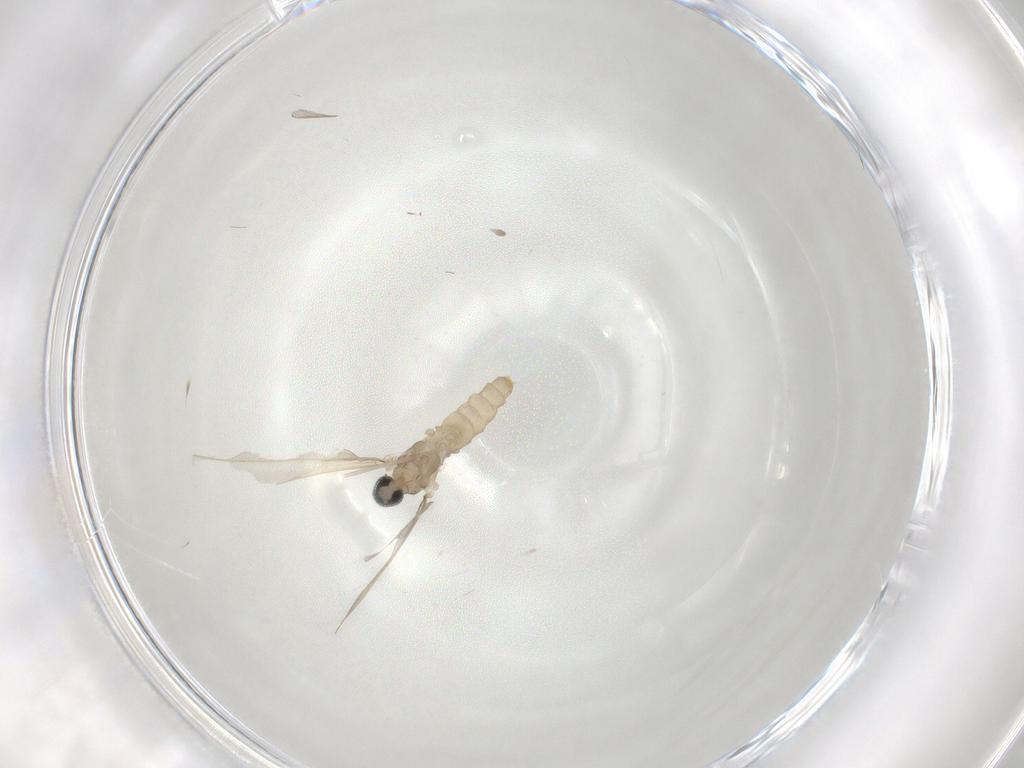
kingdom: Animalia
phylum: Arthropoda
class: Insecta
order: Diptera
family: Cecidomyiidae
